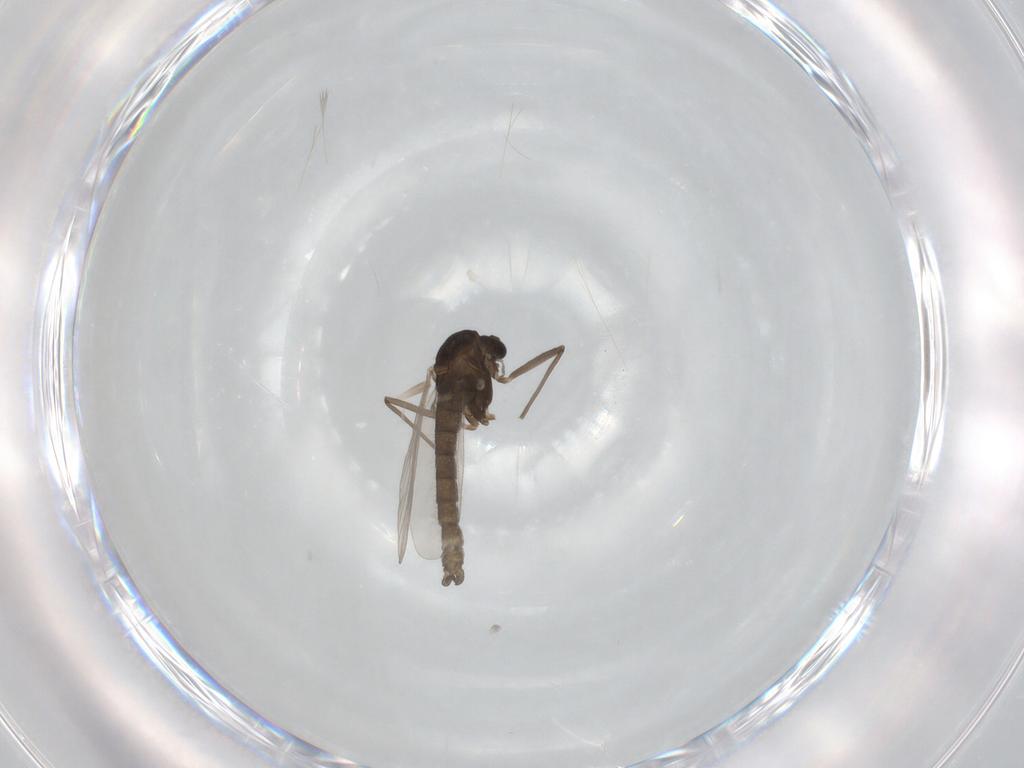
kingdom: Animalia
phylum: Arthropoda
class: Insecta
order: Diptera
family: Chironomidae
